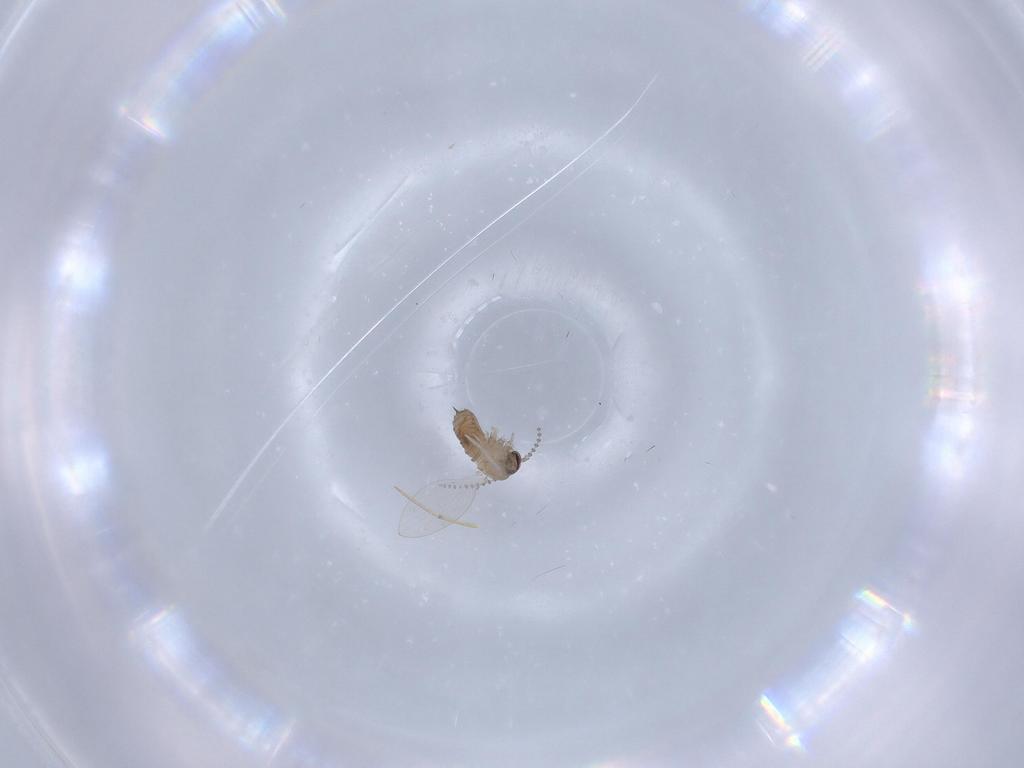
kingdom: Animalia
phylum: Arthropoda
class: Insecta
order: Diptera
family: Psychodidae
